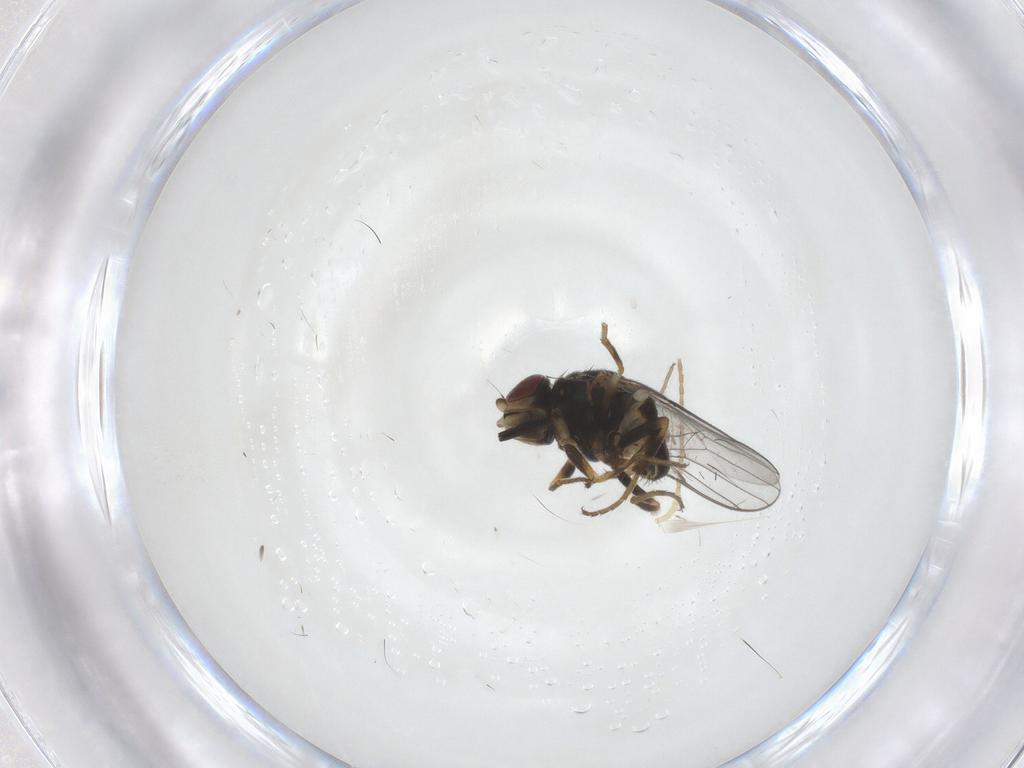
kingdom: Animalia
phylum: Arthropoda
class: Insecta
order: Diptera
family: Chloropidae
